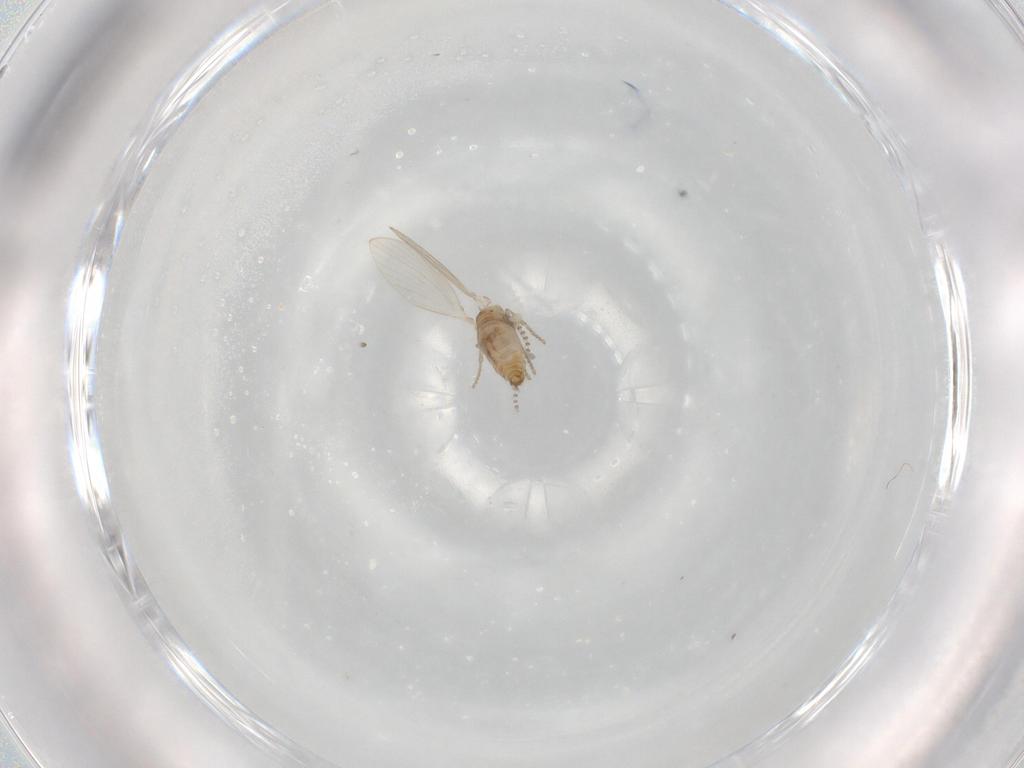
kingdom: Animalia
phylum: Arthropoda
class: Insecta
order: Diptera
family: Psychodidae
